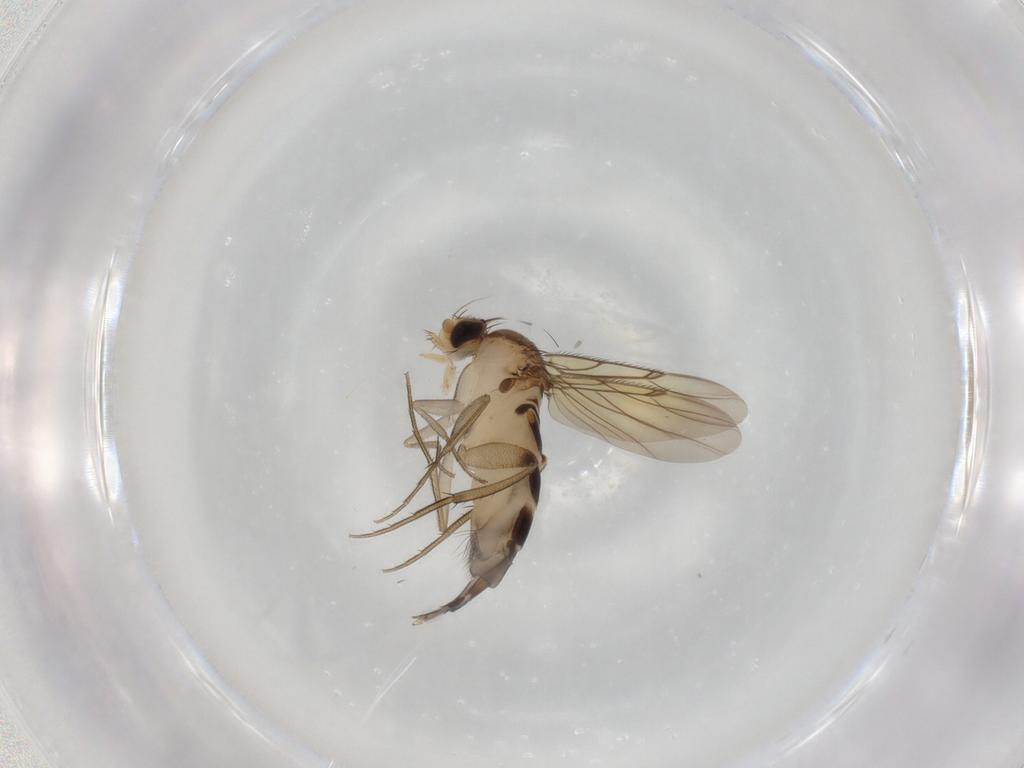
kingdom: Animalia
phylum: Arthropoda
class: Insecta
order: Diptera
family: Phoridae
